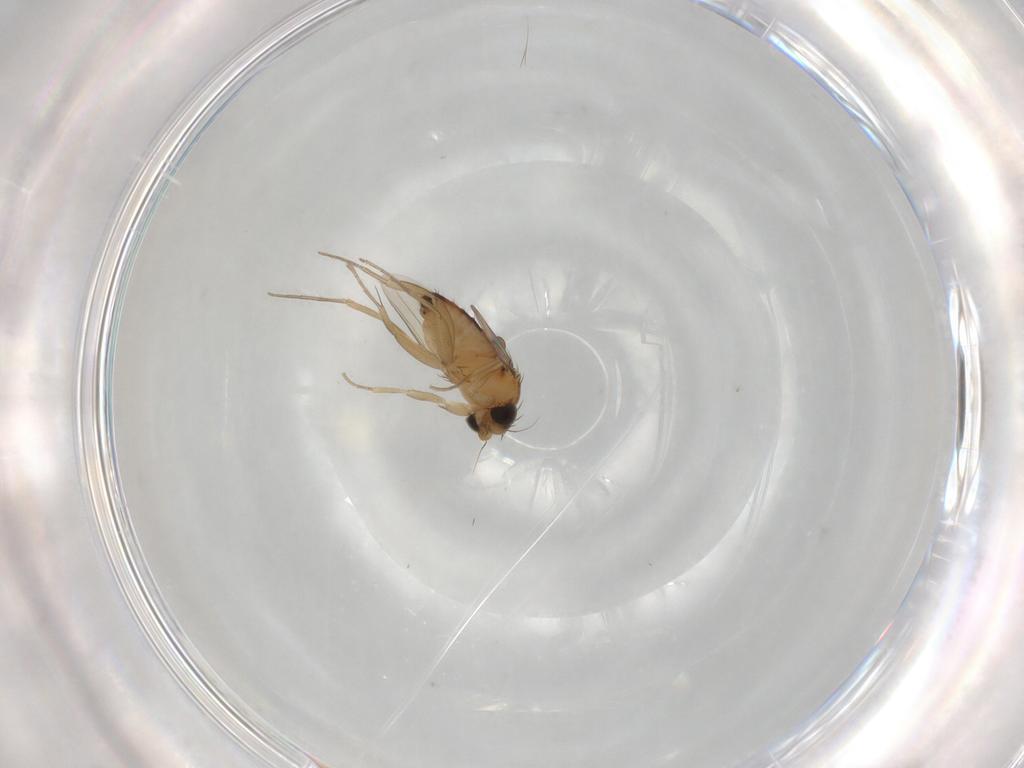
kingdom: Animalia
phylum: Arthropoda
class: Insecta
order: Diptera
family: Phoridae
